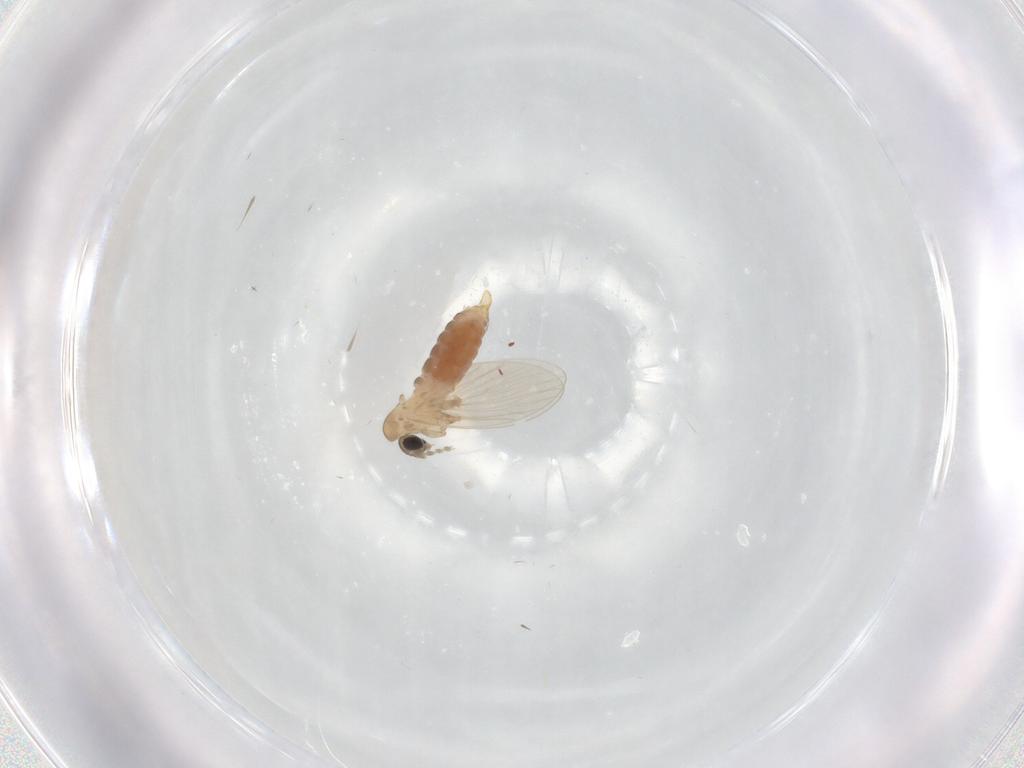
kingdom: Animalia
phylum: Arthropoda
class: Insecta
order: Diptera
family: Psychodidae
